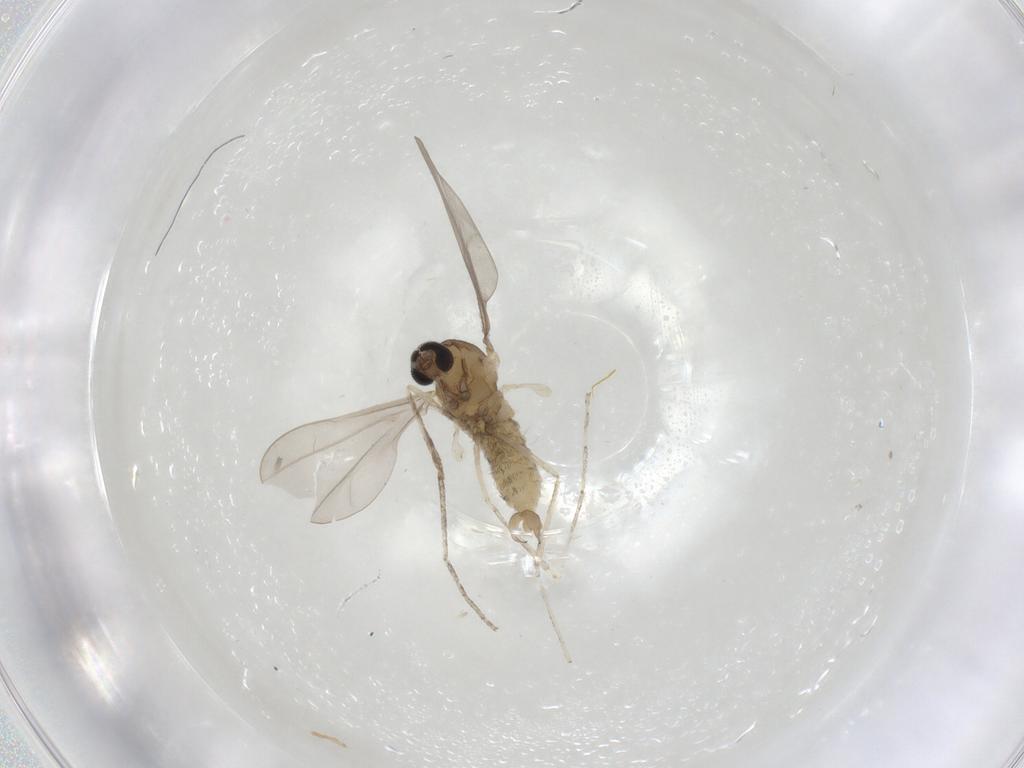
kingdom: Animalia
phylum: Arthropoda
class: Insecta
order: Diptera
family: Cecidomyiidae
